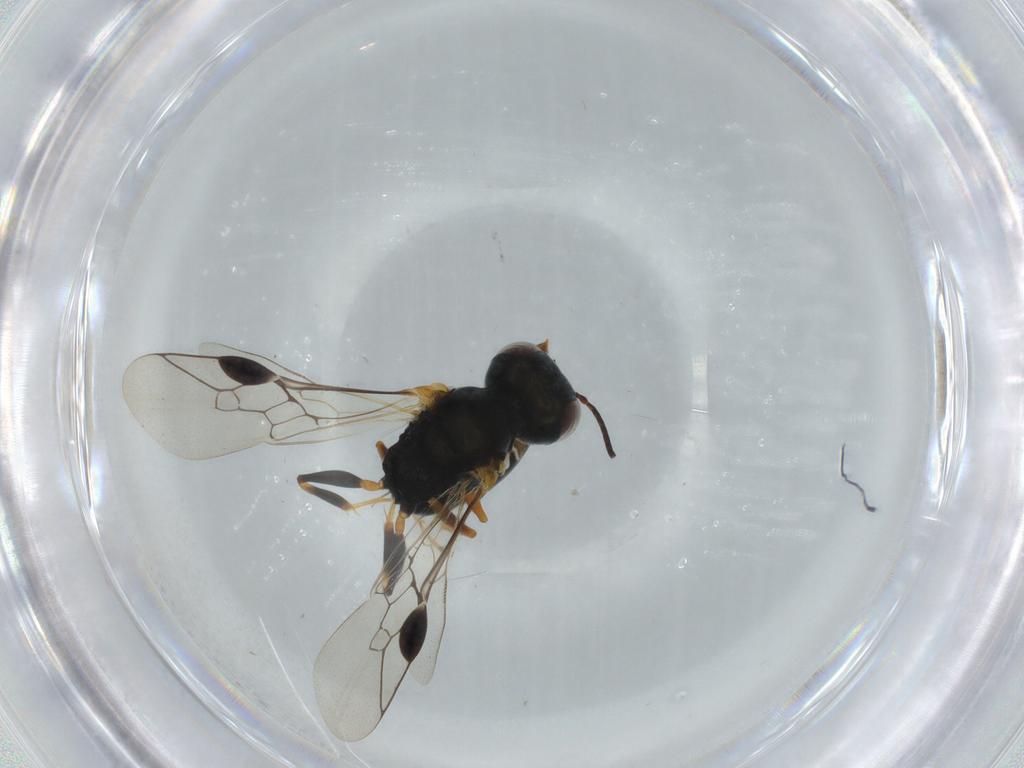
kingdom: Animalia
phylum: Arthropoda
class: Insecta
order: Hymenoptera
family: Pemphredonidae
